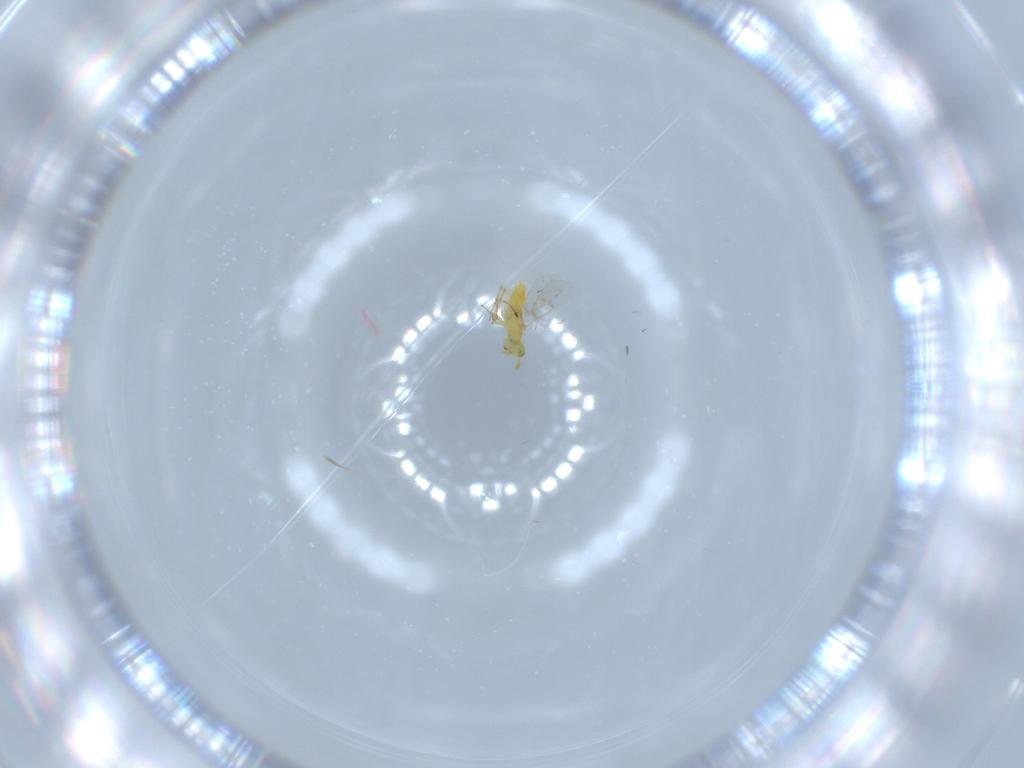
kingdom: Animalia
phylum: Arthropoda
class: Insecta
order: Hymenoptera
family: Aphelinidae
